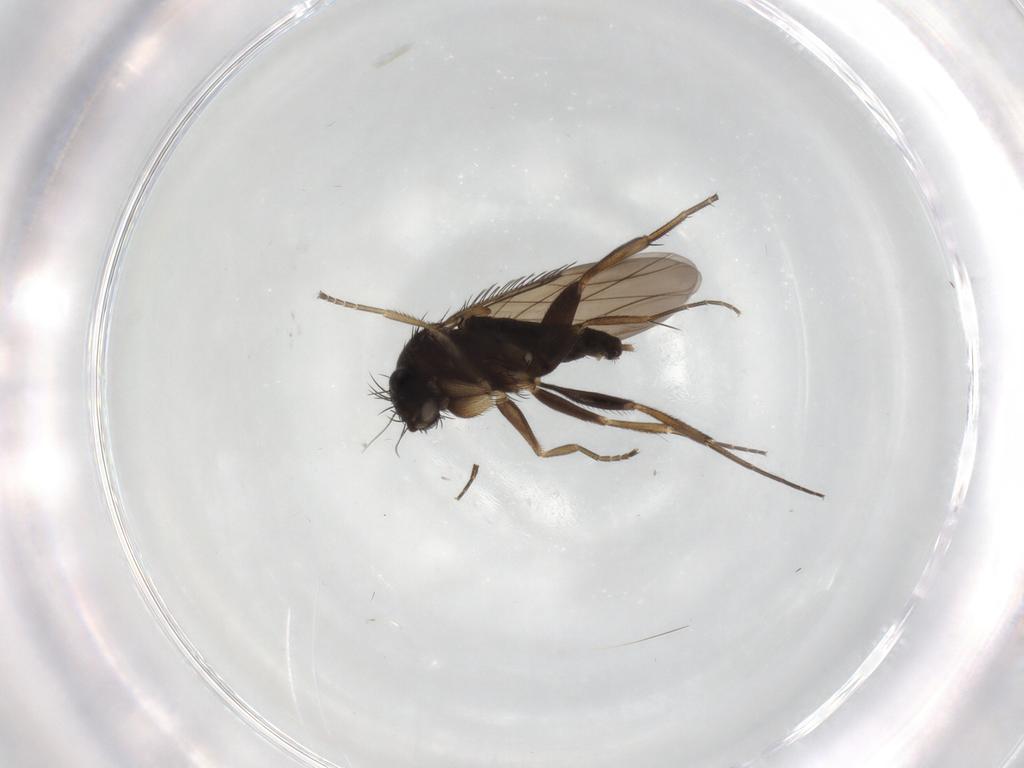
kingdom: Animalia
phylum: Arthropoda
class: Insecta
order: Diptera
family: Phoridae
